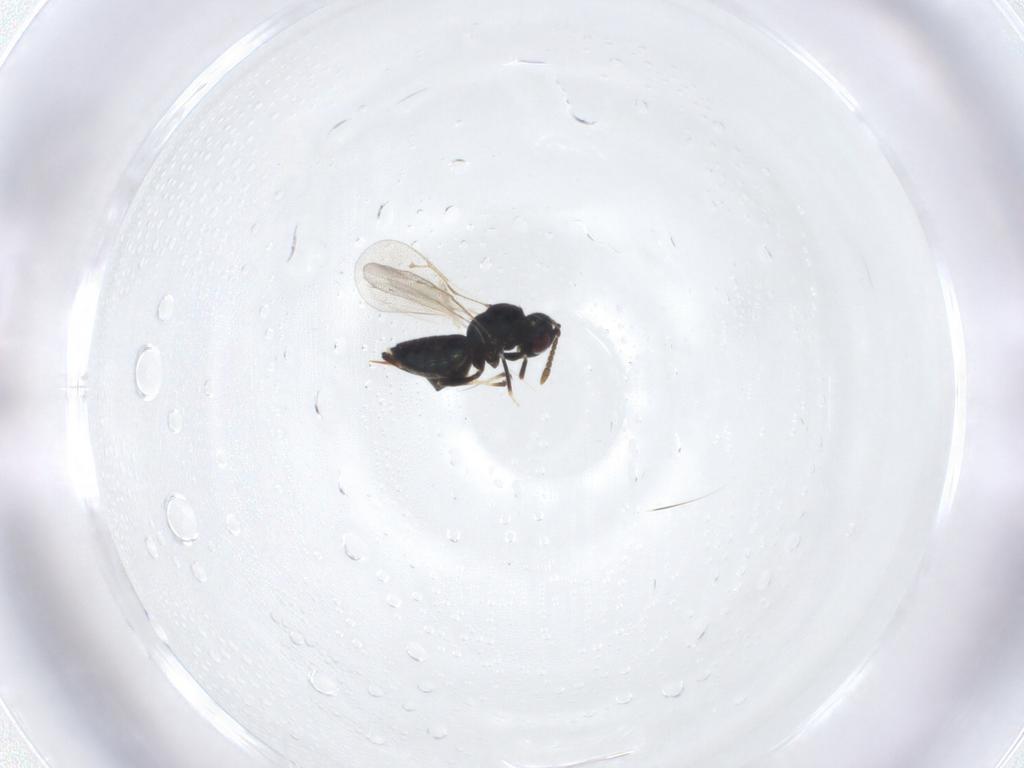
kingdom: Animalia
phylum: Arthropoda
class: Insecta
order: Hymenoptera
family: Pteromalidae
